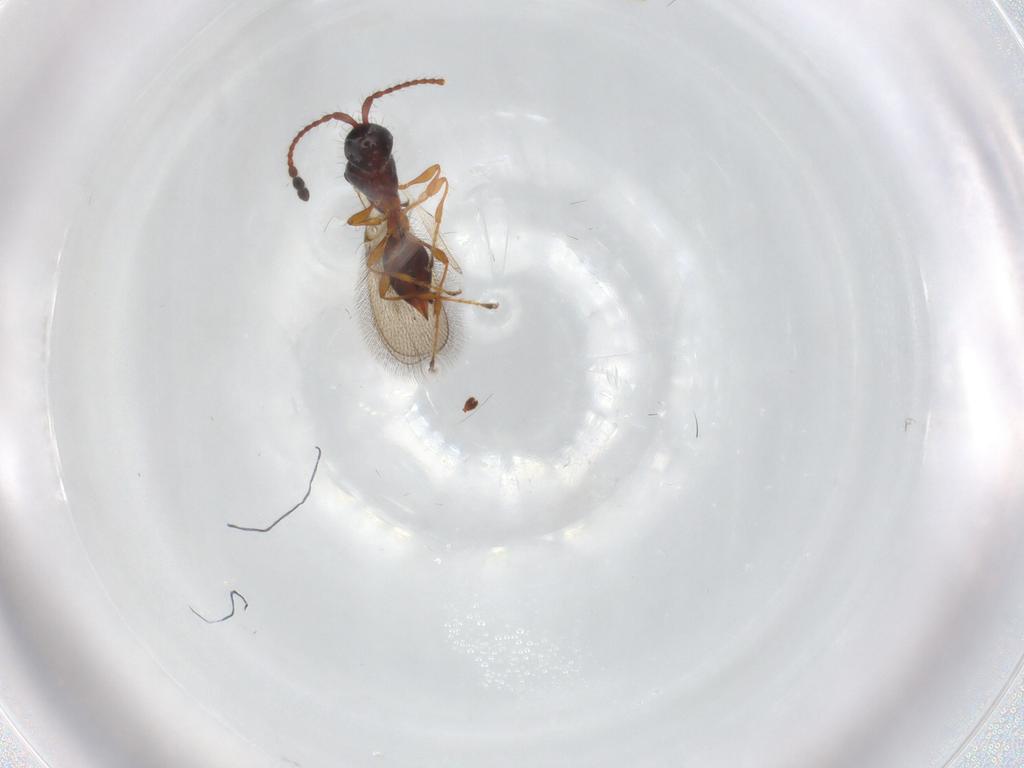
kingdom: Animalia
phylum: Arthropoda
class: Insecta
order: Hymenoptera
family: Diapriidae
